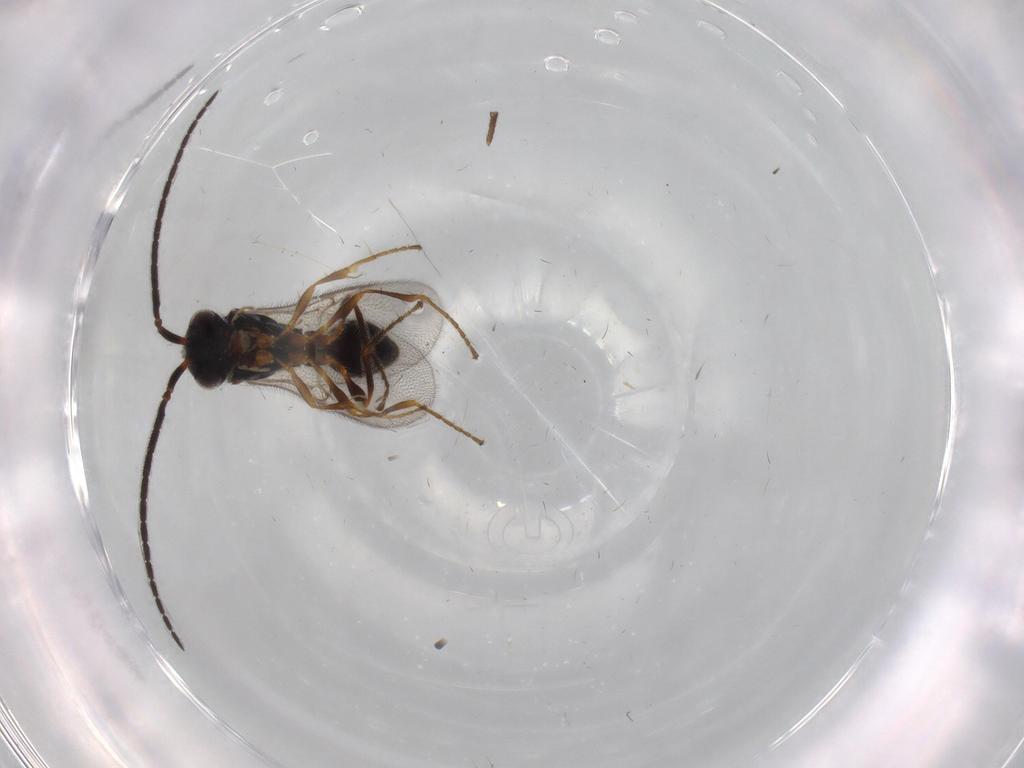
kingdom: Animalia
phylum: Arthropoda
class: Insecta
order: Hymenoptera
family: Diapriidae
